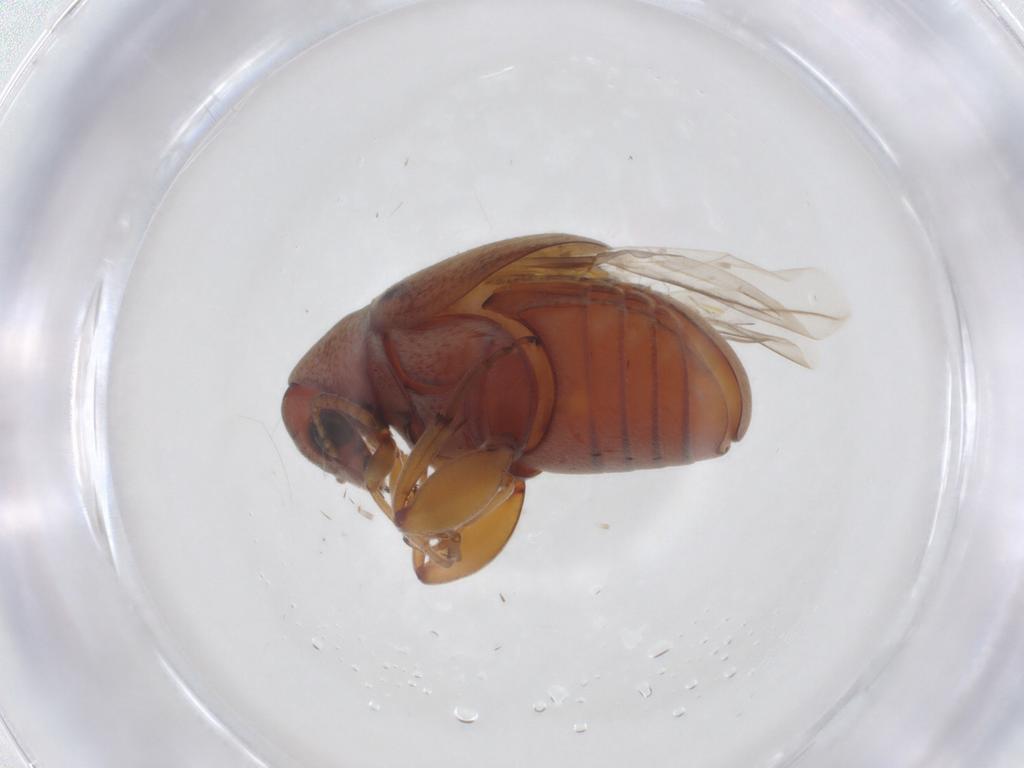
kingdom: Animalia
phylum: Arthropoda
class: Insecta
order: Coleoptera
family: Chrysomelidae
